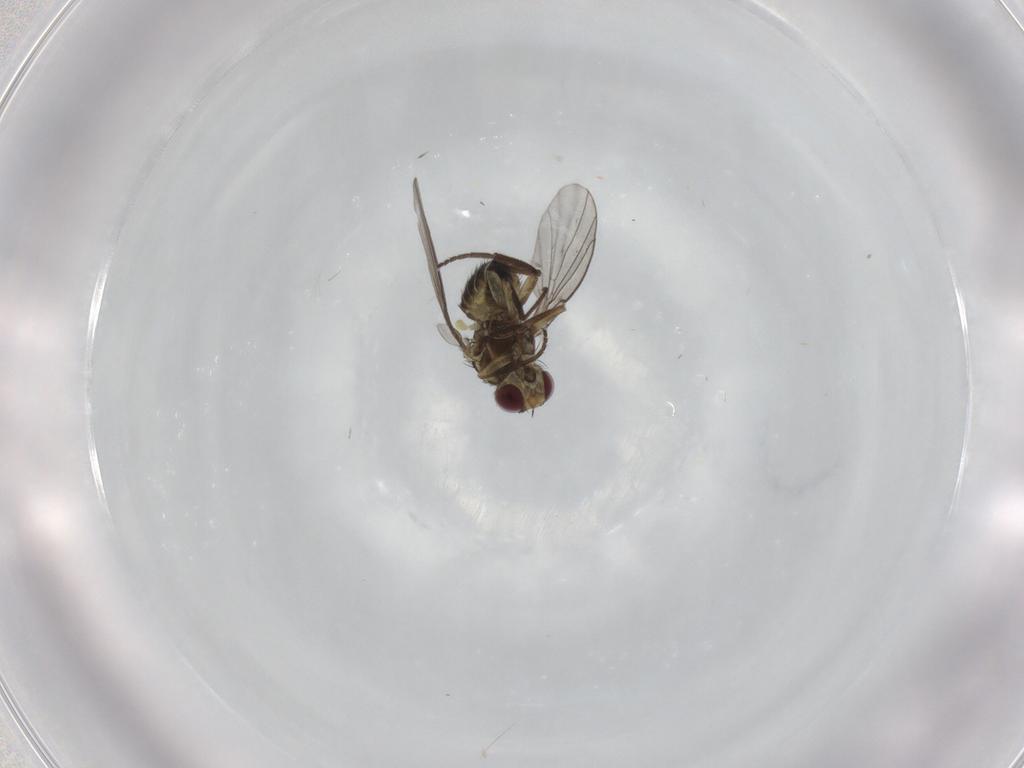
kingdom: Animalia
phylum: Arthropoda
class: Insecta
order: Diptera
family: Agromyzidae
